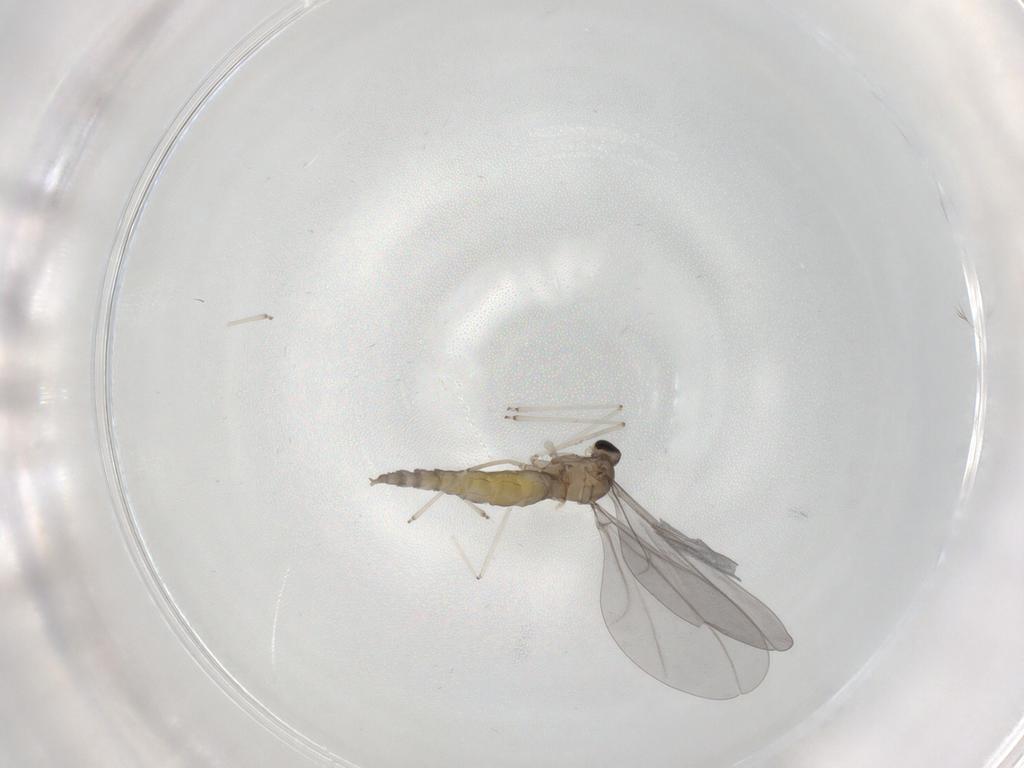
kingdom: Animalia
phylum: Arthropoda
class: Insecta
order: Diptera
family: Cecidomyiidae
